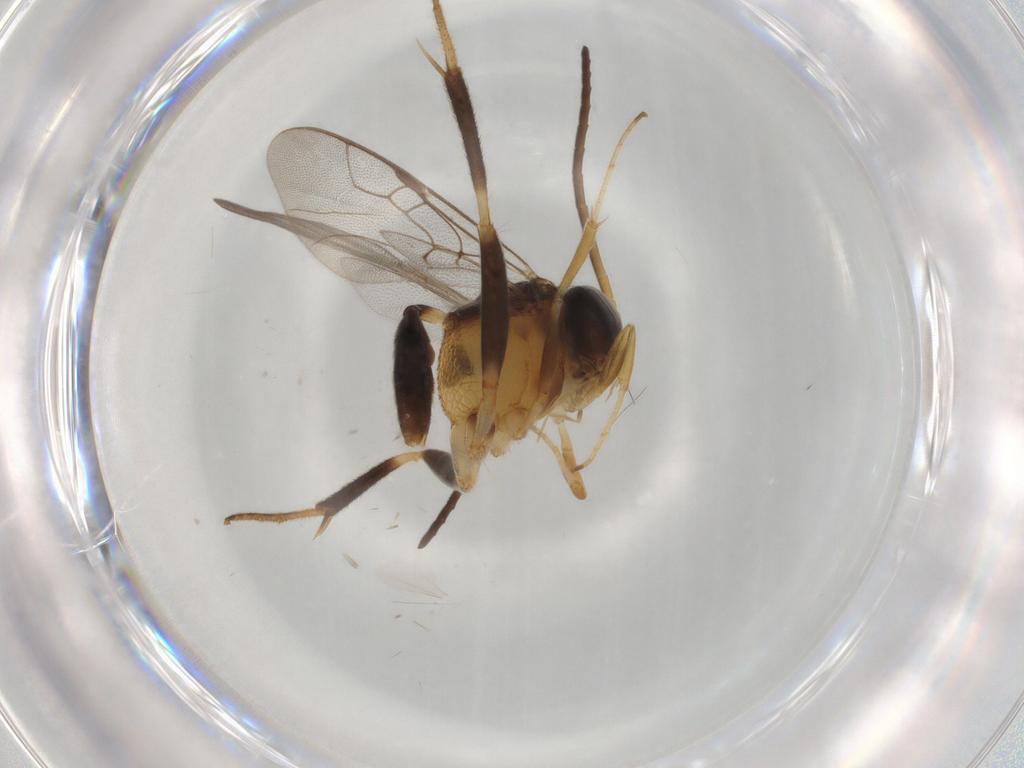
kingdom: Animalia
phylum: Arthropoda
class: Insecta
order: Hymenoptera
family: Evaniidae
